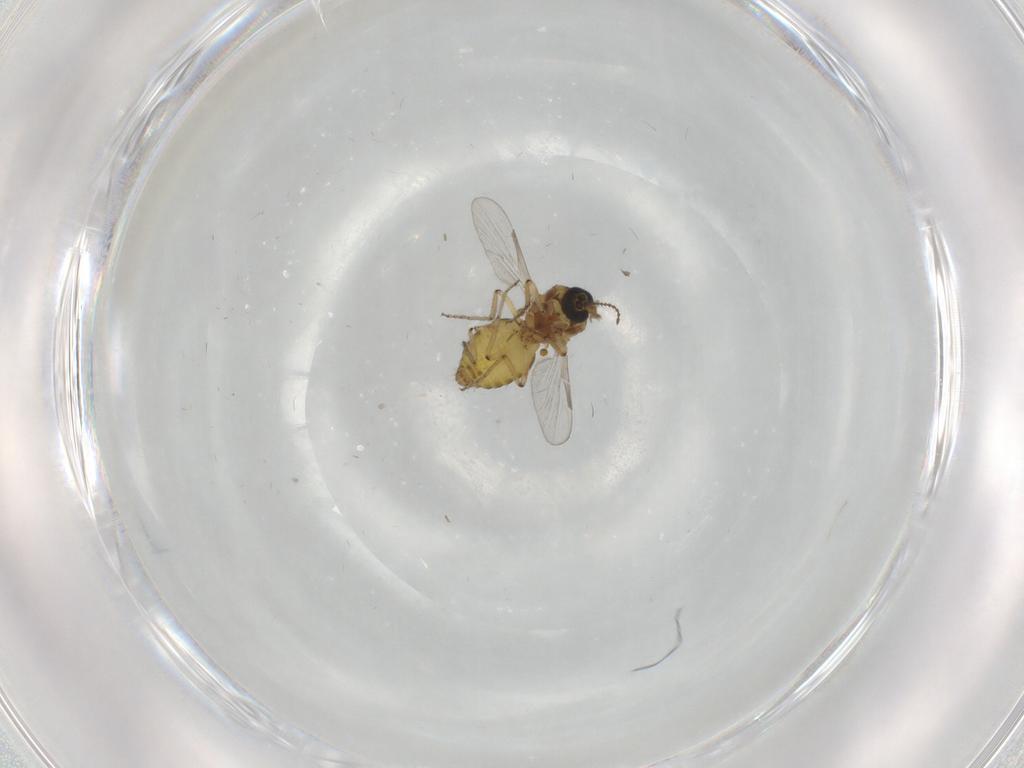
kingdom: Animalia
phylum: Arthropoda
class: Insecta
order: Diptera
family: Ceratopogonidae
